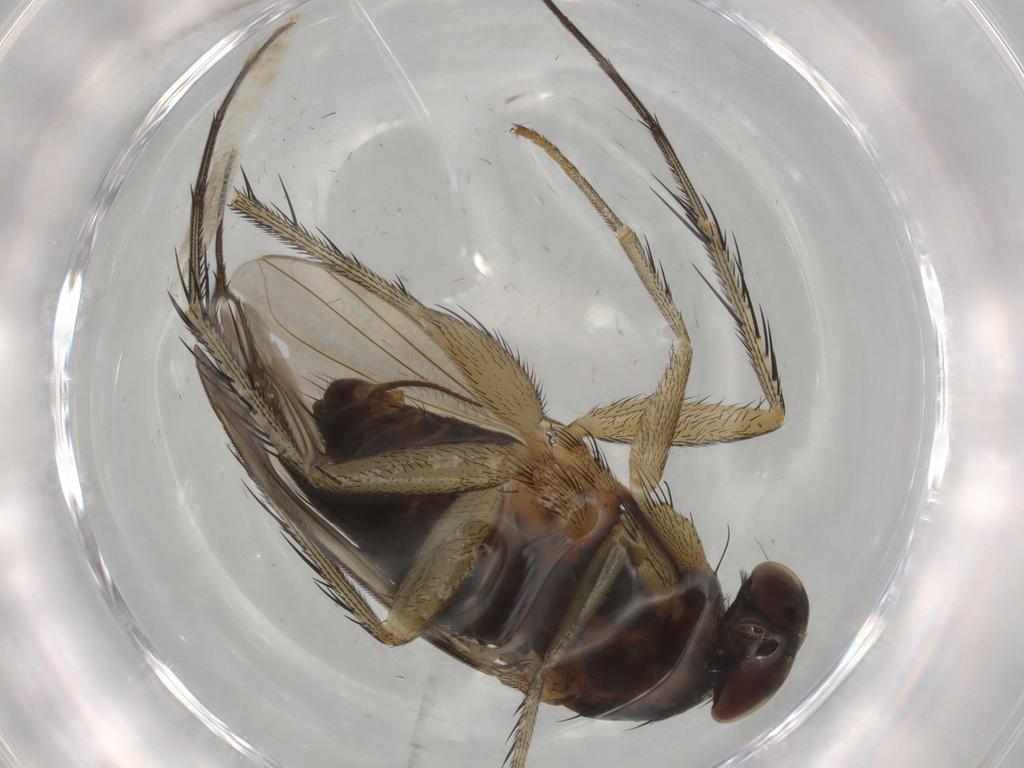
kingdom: Animalia
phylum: Arthropoda
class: Insecta
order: Diptera
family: Dolichopodidae
